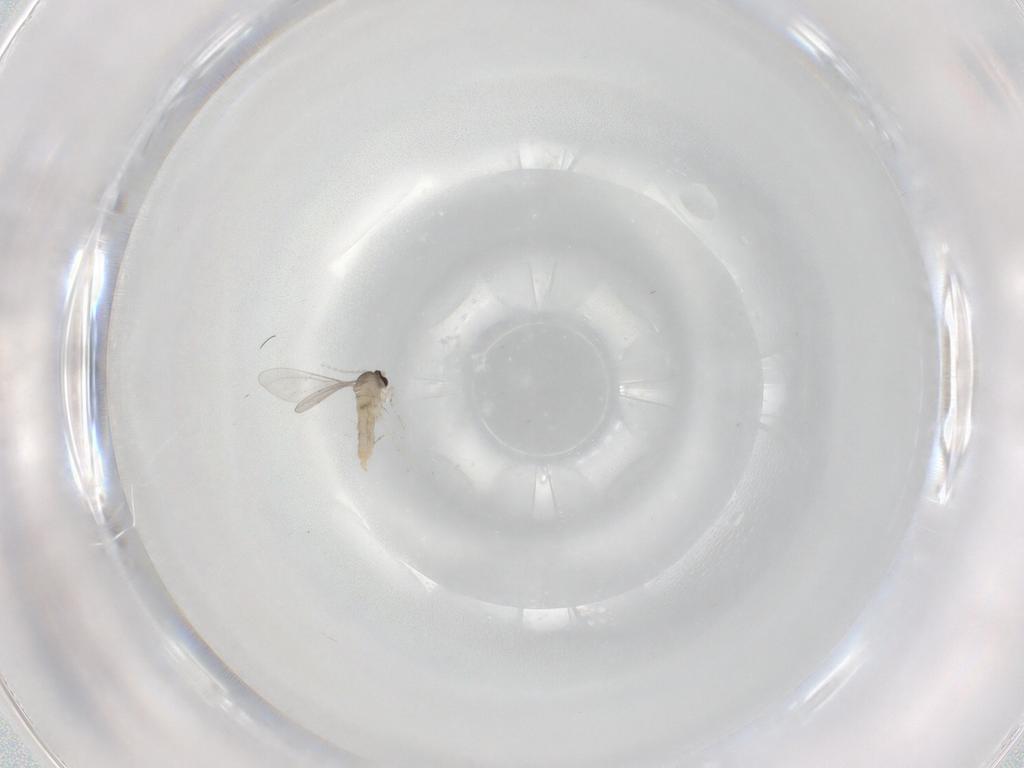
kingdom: Animalia
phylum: Arthropoda
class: Insecta
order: Diptera
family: Cecidomyiidae
